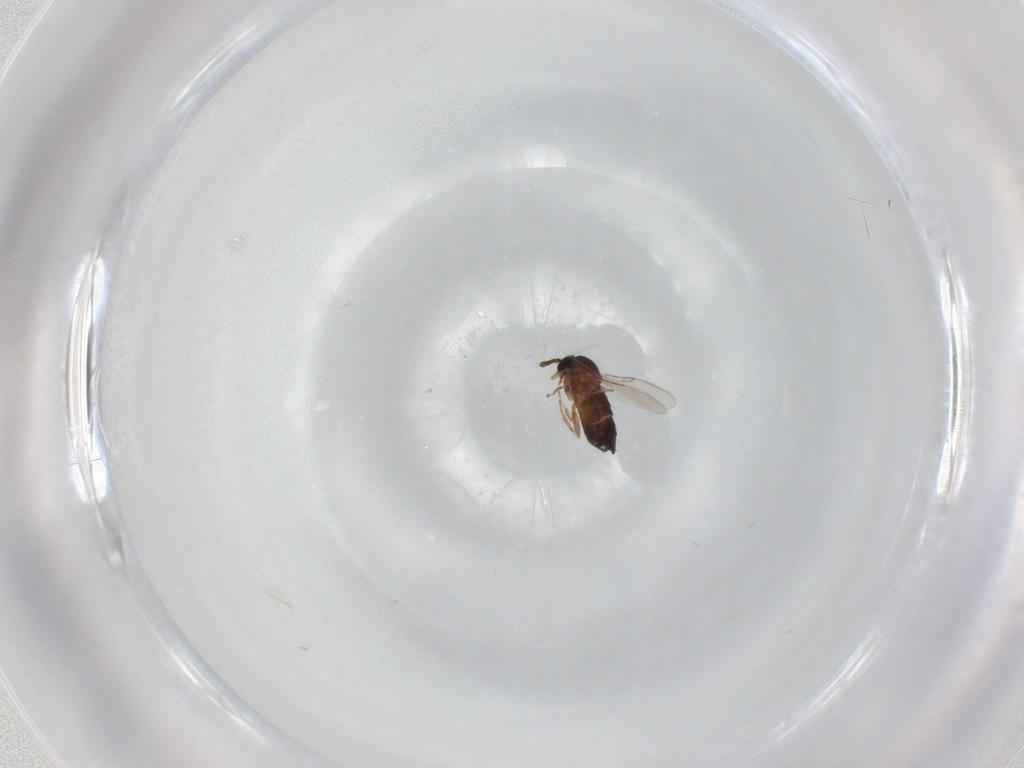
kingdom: Animalia
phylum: Arthropoda
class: Insecta
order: Diptera
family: Scatopsidae
